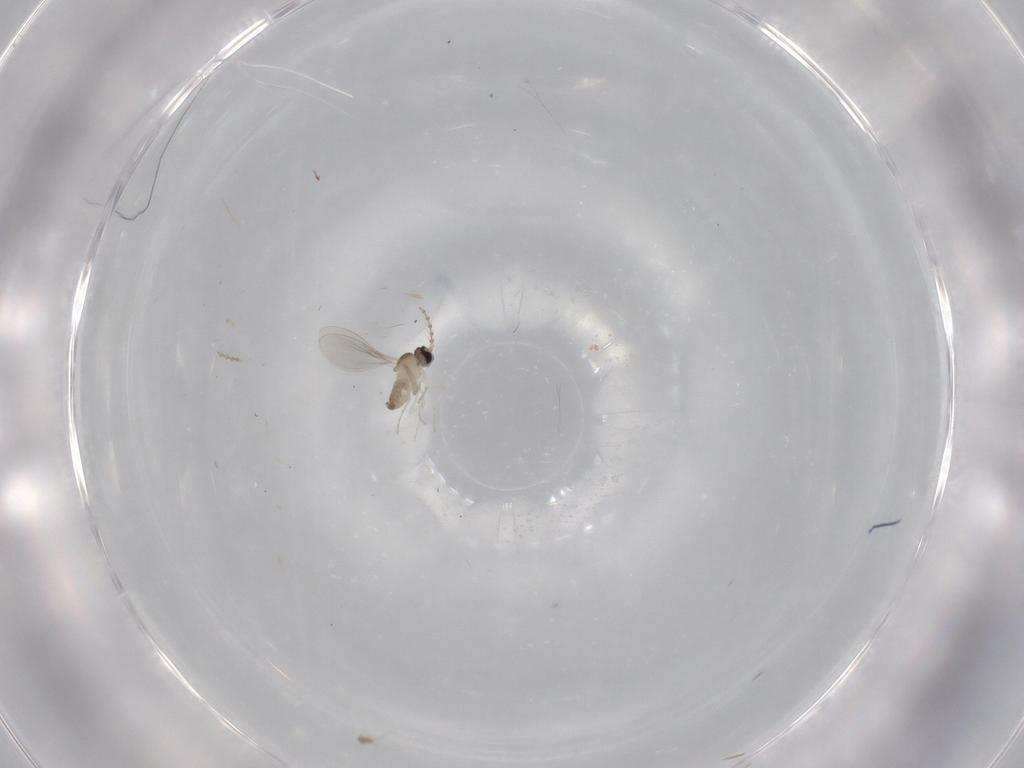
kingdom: Animalia
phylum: Arthropoda
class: Insecta
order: Diptera
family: Cecidomyiidae
